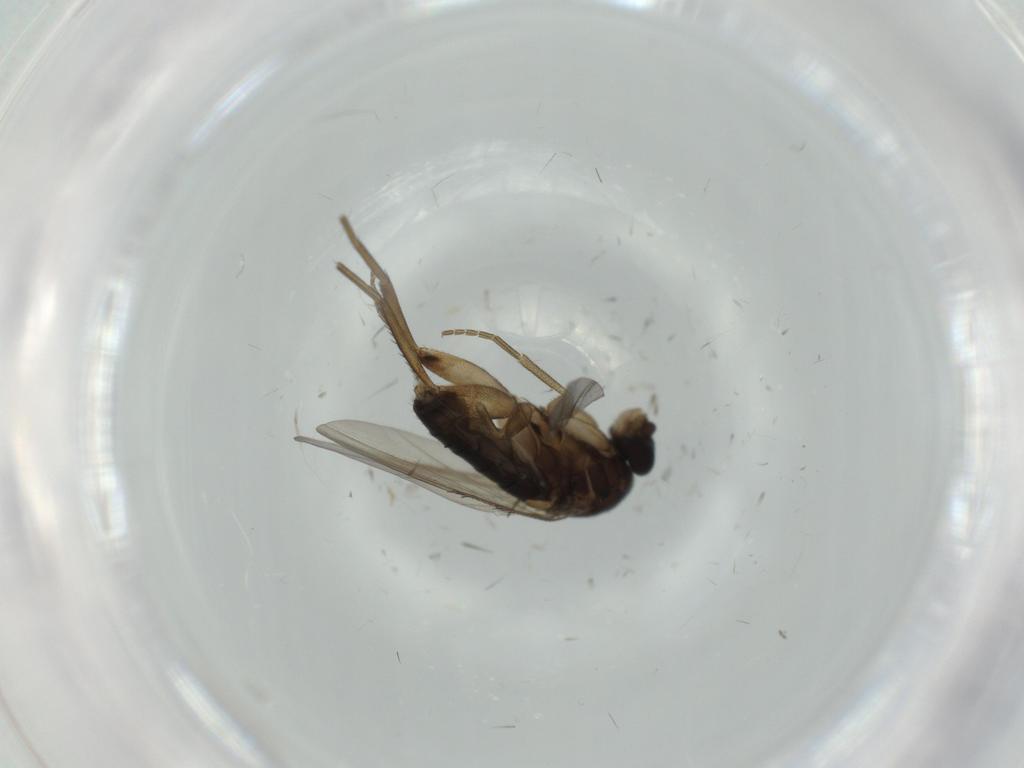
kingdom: Animalia
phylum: Arthropoda
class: Insecta
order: Diptera
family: Phoridae
